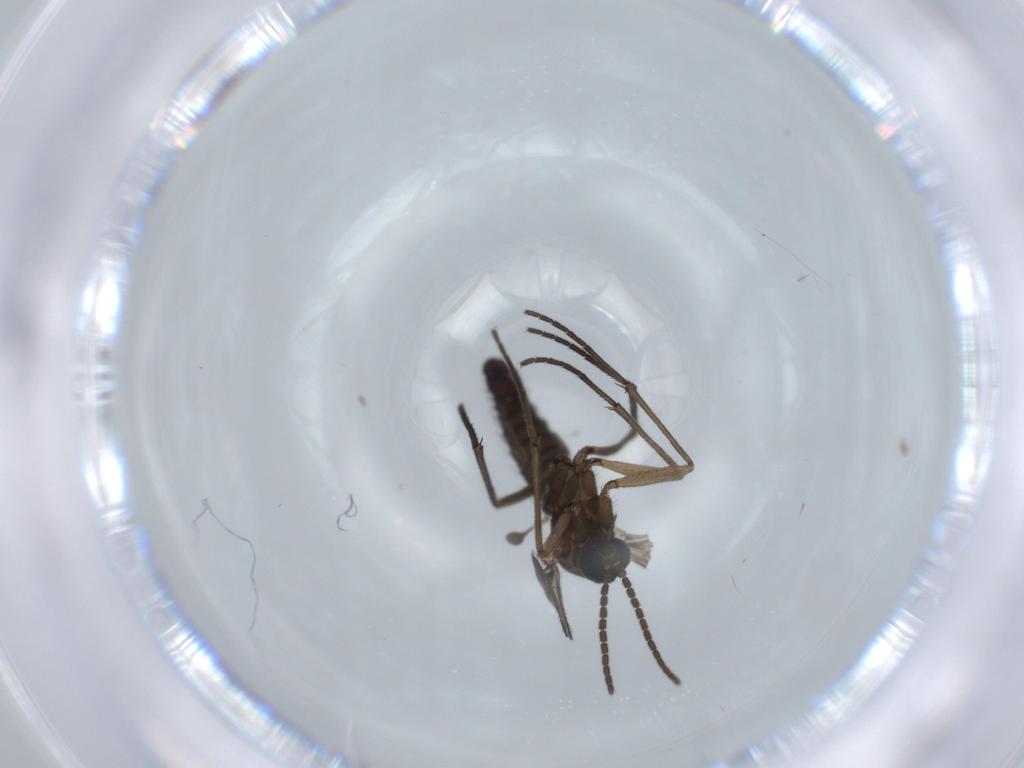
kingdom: Animalia
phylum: Arthropoda
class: Insecta
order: Diptera
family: Sciaridae
